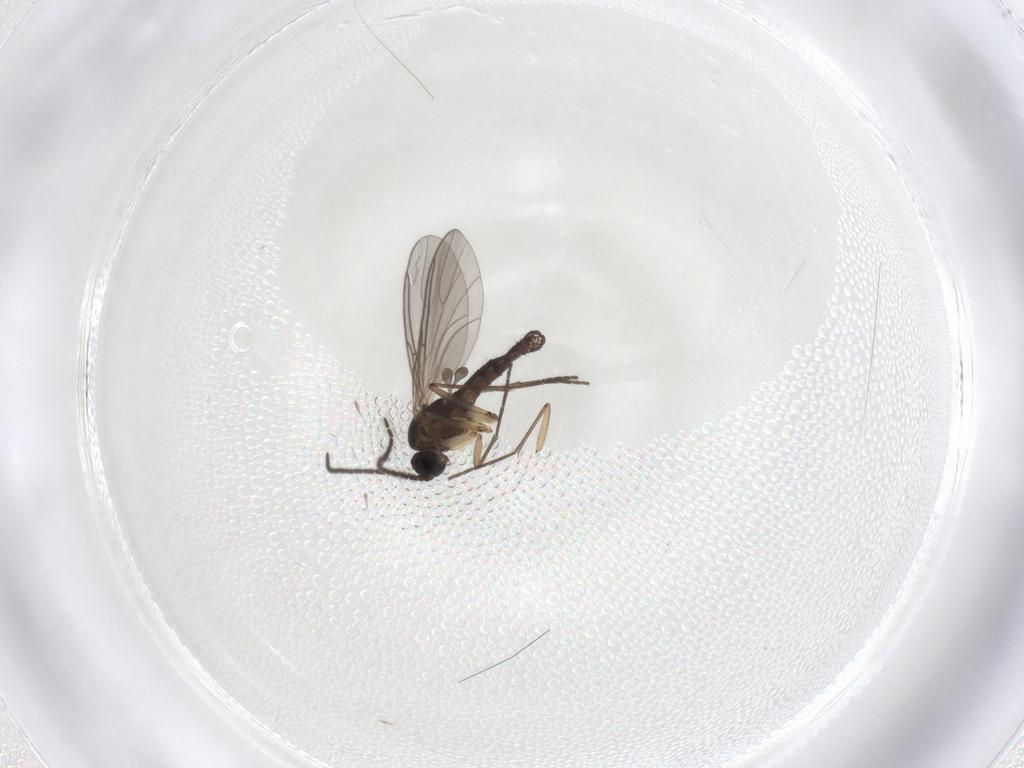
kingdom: Animalia
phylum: Arthropoda
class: Insecta
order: Diptera
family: Sciaridae
